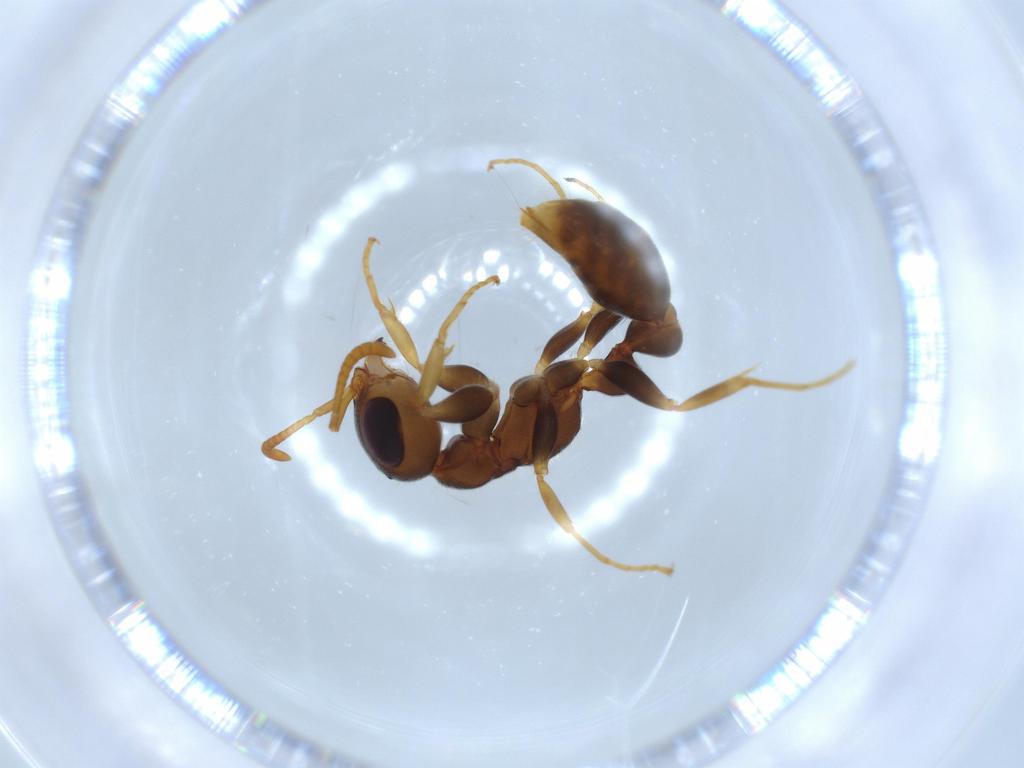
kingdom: Animalia
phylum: Arthropoda
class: Insecta
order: Hymenoptera
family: Formicidae
